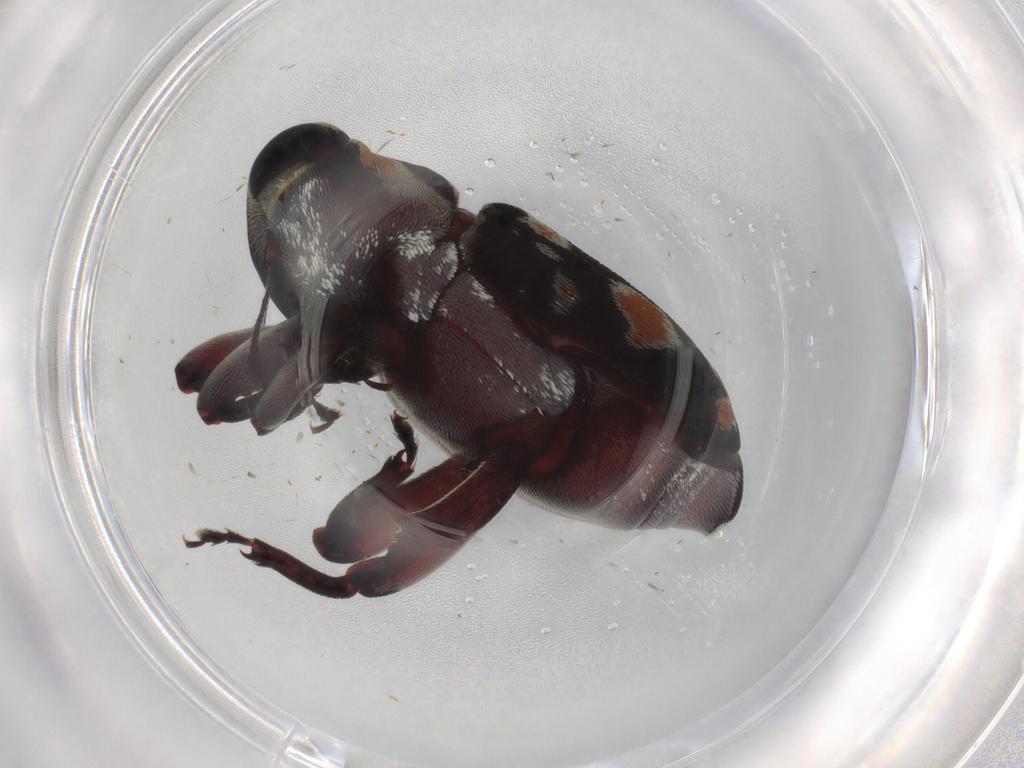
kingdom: Animalia
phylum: Arthropoda
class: Insecta
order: Coleoptera
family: Curculionidae
